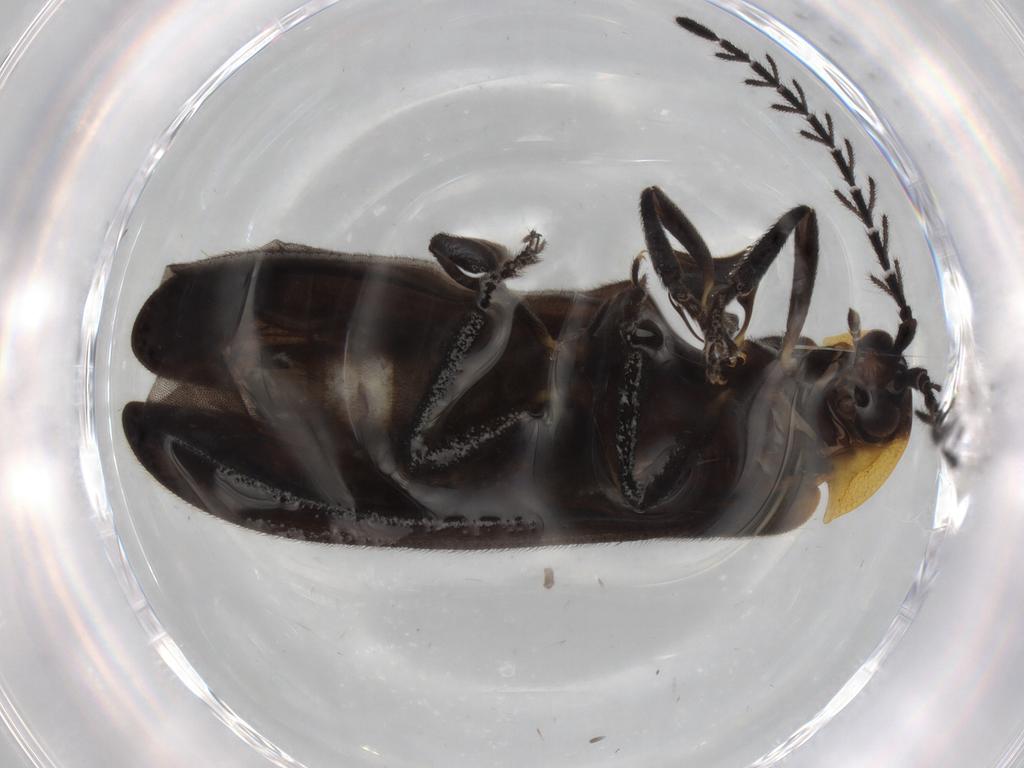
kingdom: Animalia
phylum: Arthropoda
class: Insecta
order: Coleoptera
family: Lampyridae
